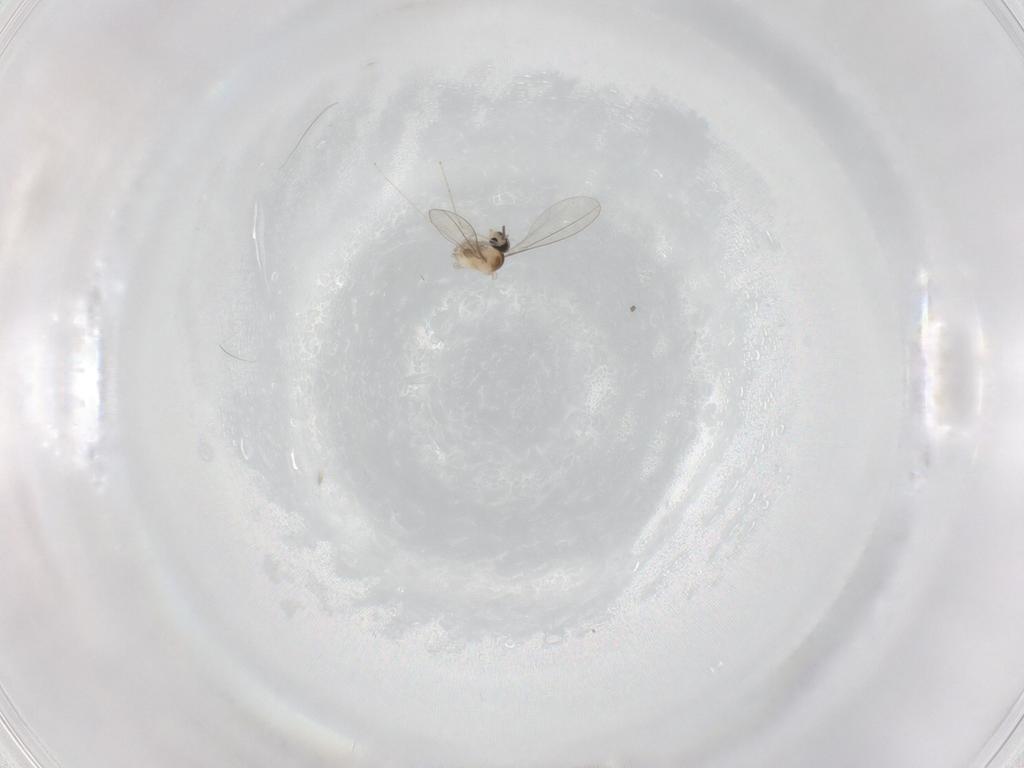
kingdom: Animalia
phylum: Arthropoda
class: Insecta
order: Diptera
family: Cecidomyiidae
